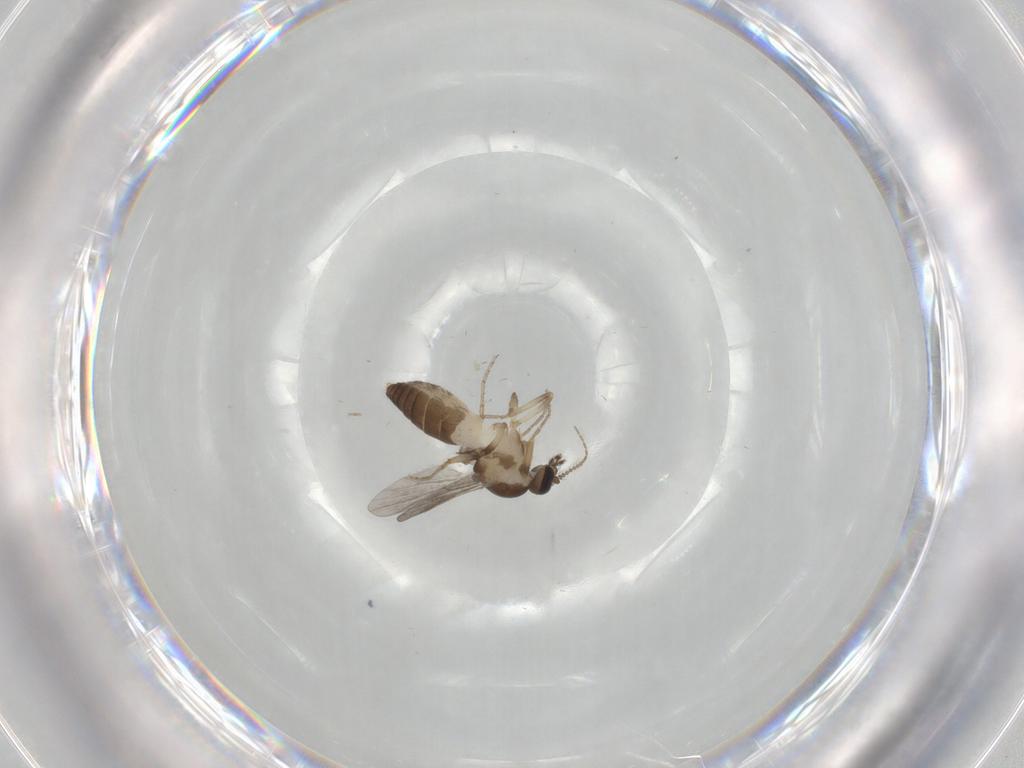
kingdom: Animalia
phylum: Arthropoda
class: Insecta
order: Diptera
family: Ceratopogonidae
